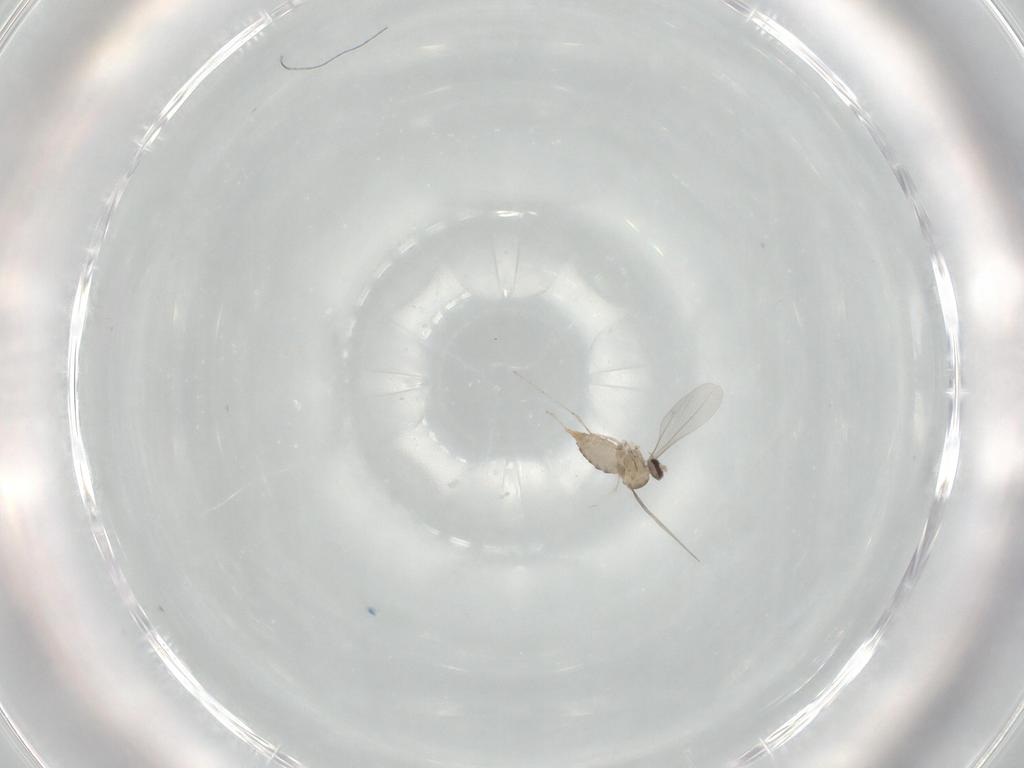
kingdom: Animalia
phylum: Arthropoda
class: Insecta
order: Diptera
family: Cecidomyiidae
